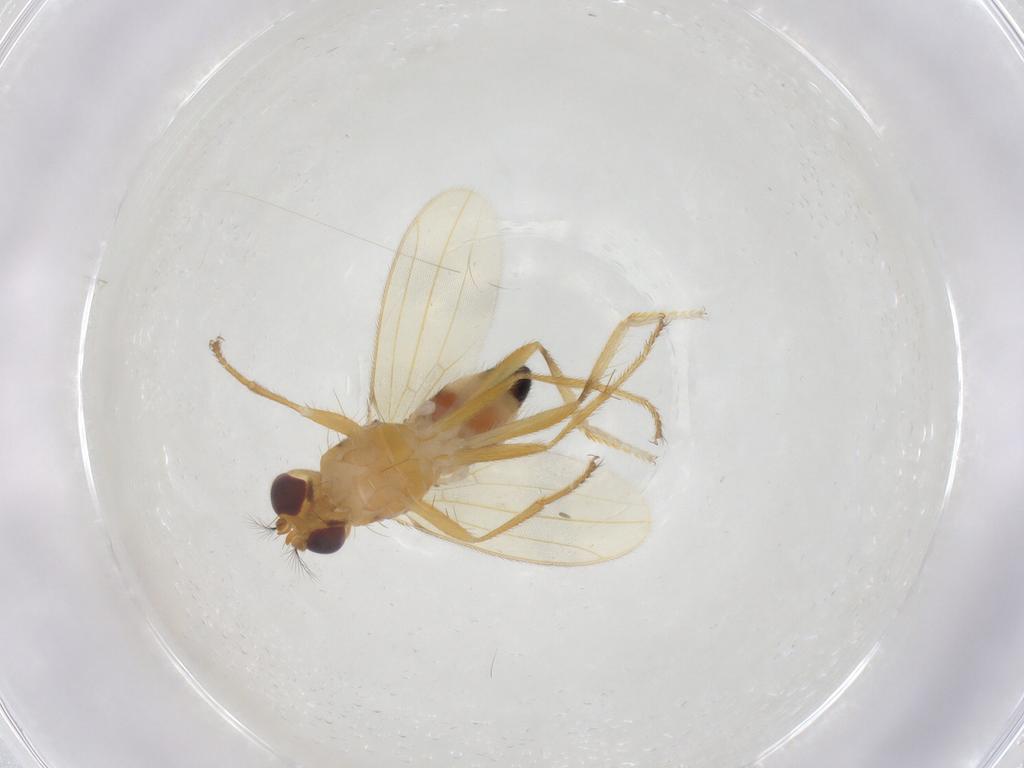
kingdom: Animalia
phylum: Arthropoda
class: Insecta
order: Diptera
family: Periscelididae
